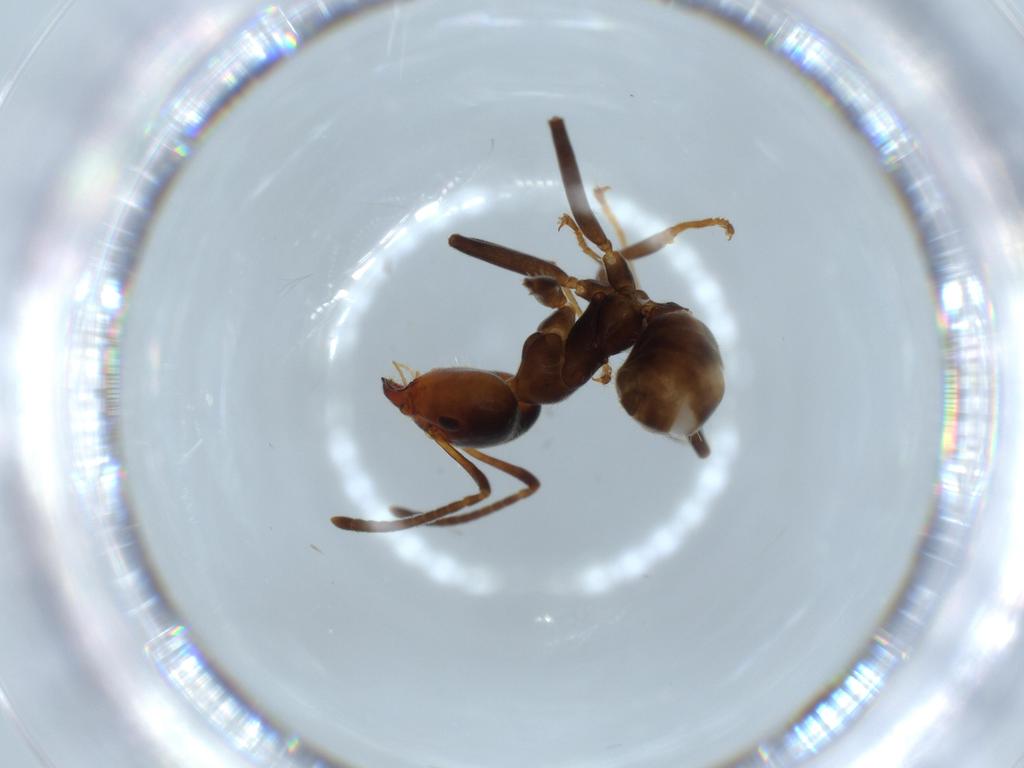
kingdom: Animalia
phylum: Arthropoda
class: Insecta
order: Hymenoptera
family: Formicidae
